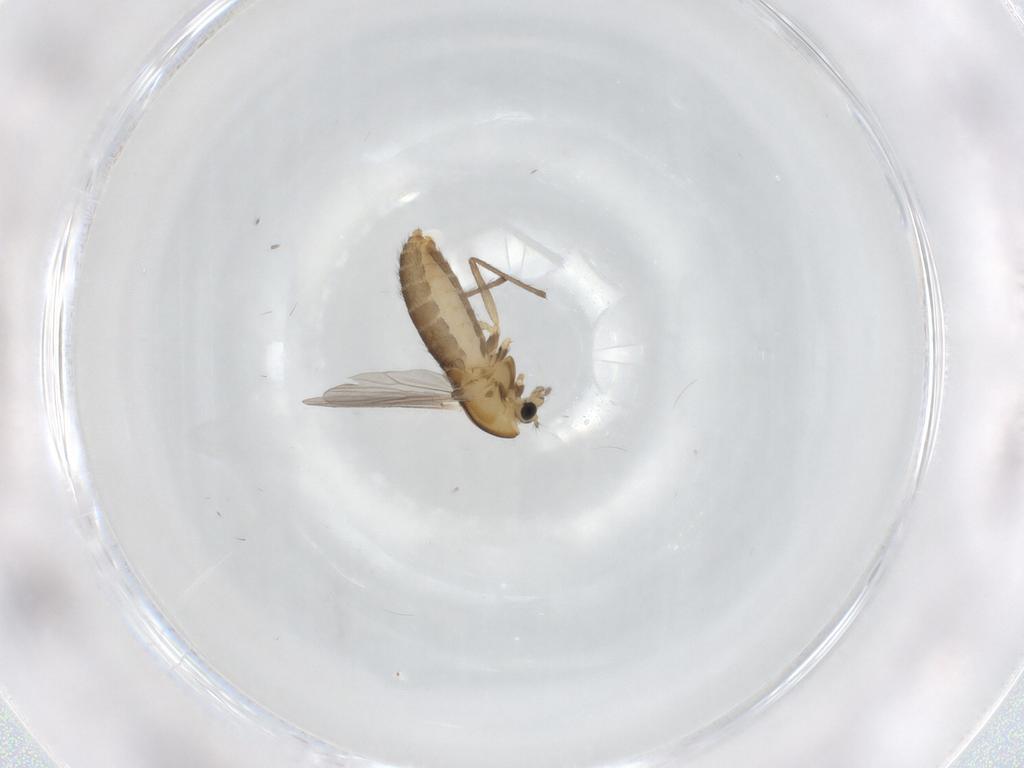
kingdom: Animalia
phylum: Arthropoda
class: Insecta
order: Diptera
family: Chironomidae
